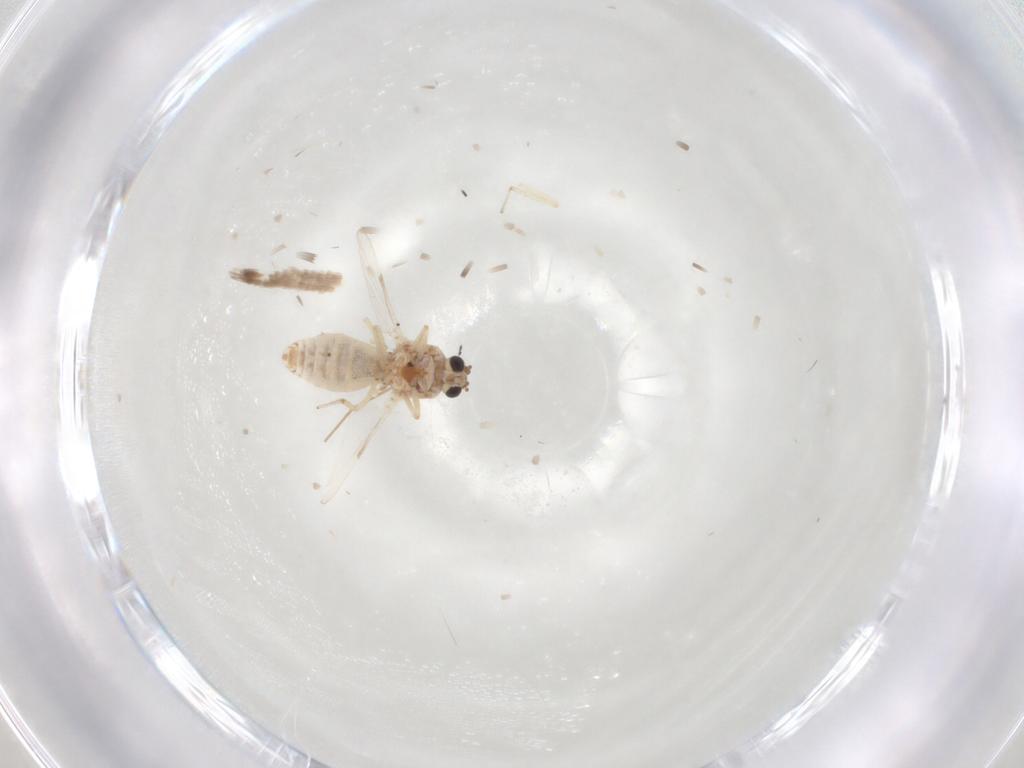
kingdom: Animalia
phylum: Arthropoda
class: Insecta
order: Diptera
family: Ceratopogonidae
